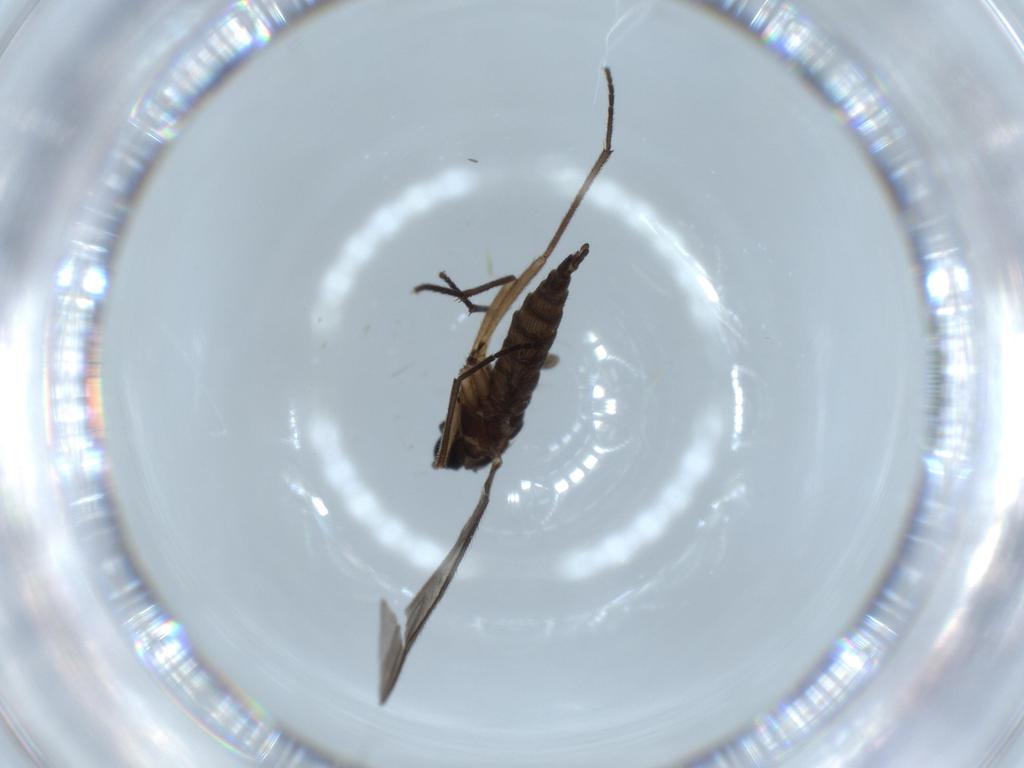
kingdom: Animalia
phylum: Arthropoda
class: Insecta
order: Diptera
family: Sciaridae
